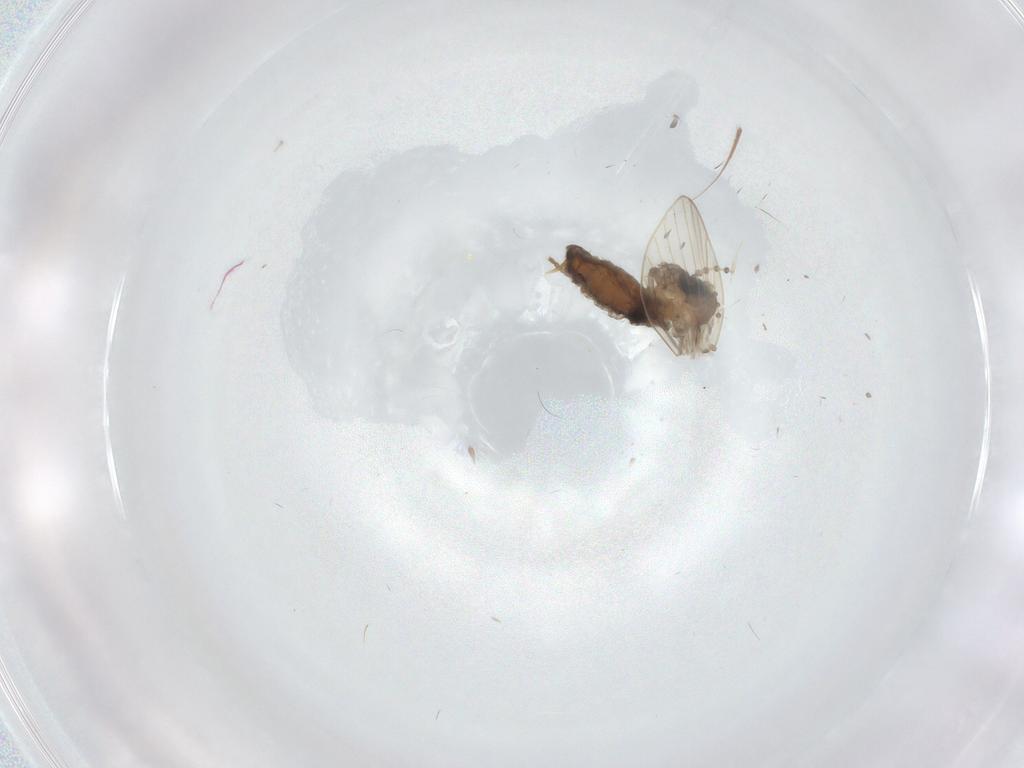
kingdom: Animalia
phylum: Arthropoda
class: Insecta
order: Diptera
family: Psychodidae
